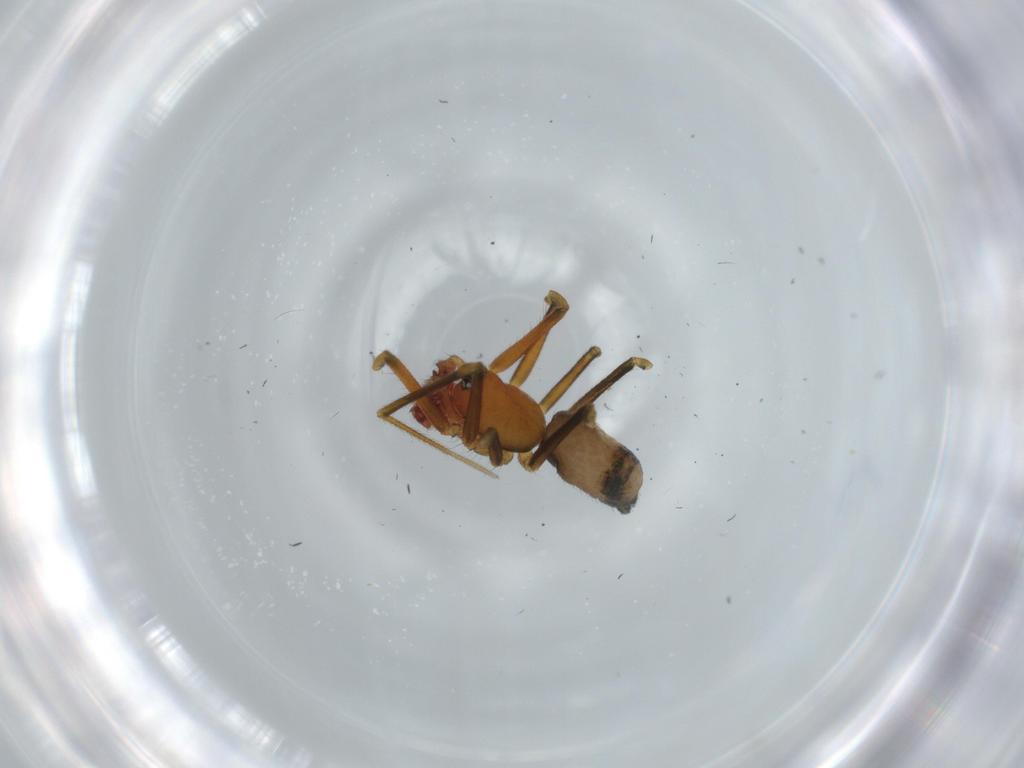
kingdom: Animalia
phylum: Arthropoda
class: Arachnida
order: Araneae
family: Linyphiidae
